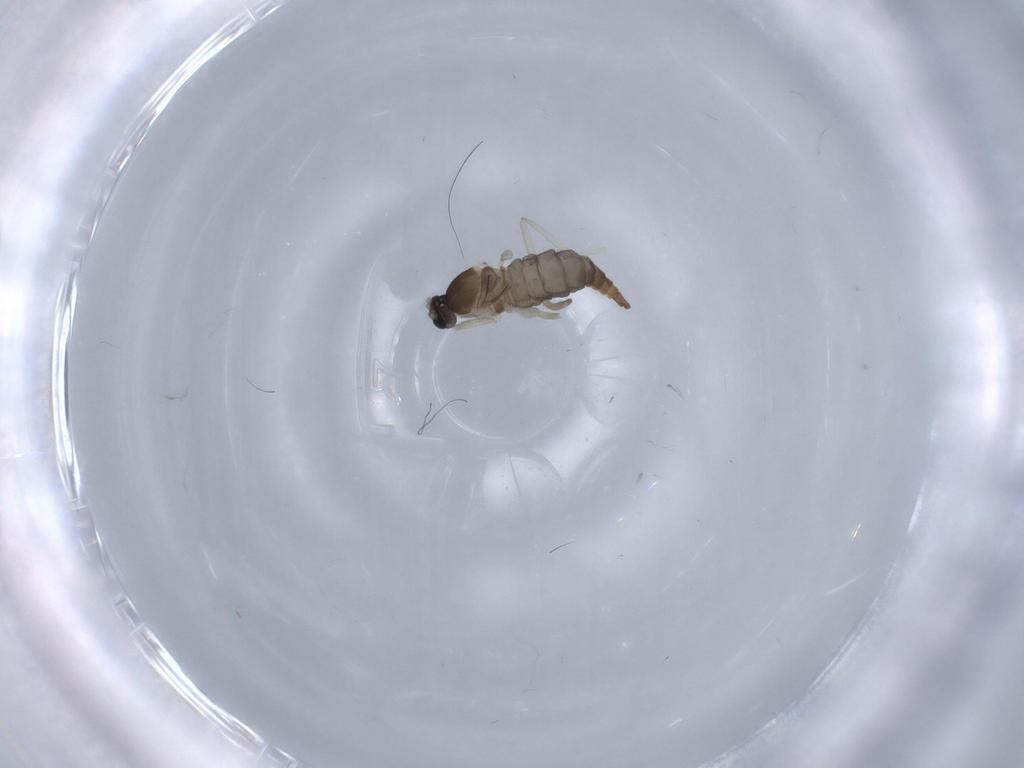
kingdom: Animalia
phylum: Arthropoda
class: Insecta
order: Diptera
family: Cecidomyiidae
